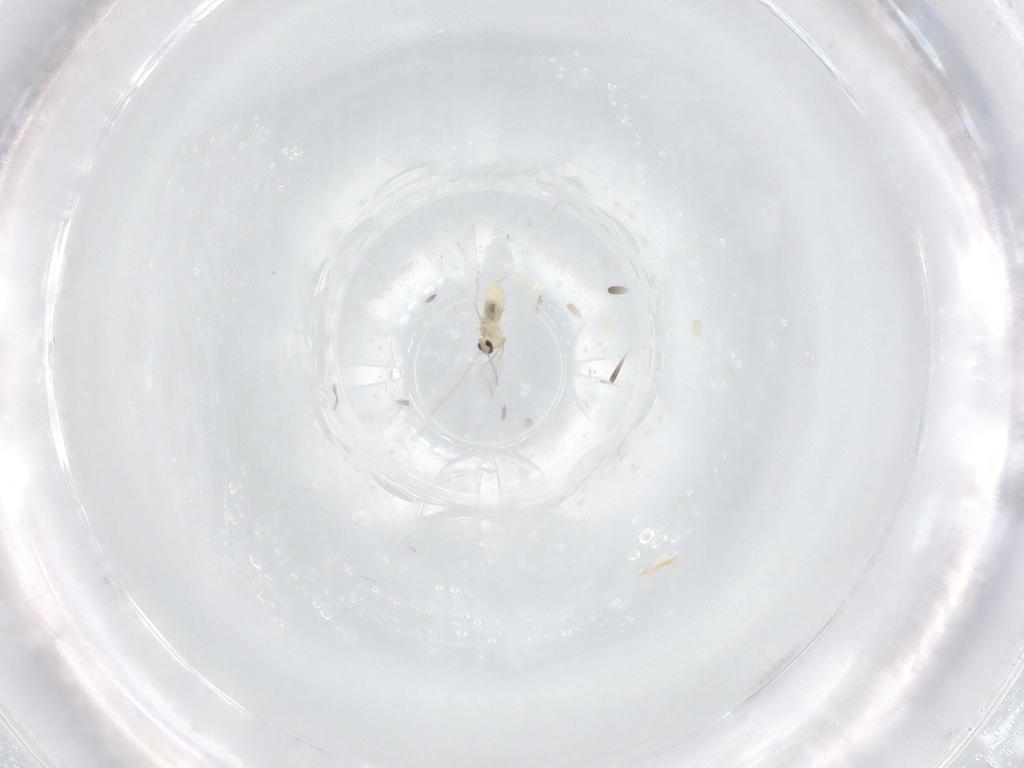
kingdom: Animalia
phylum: Arthropoda
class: Insecta
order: Diptera
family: Cecidomyiidae
